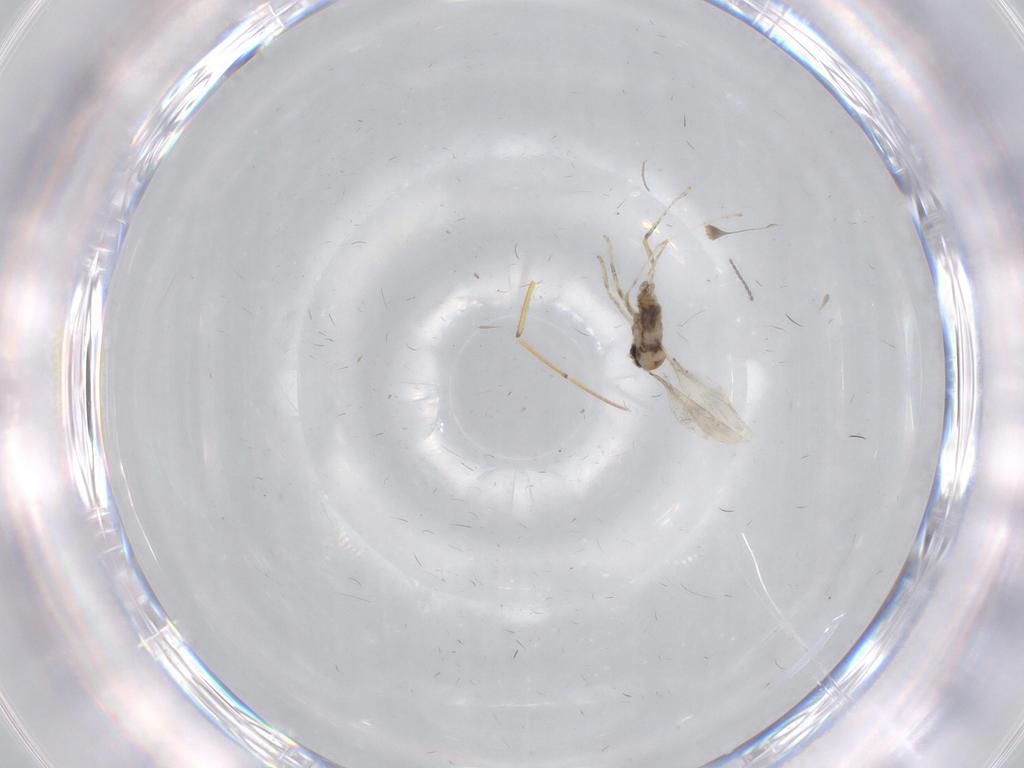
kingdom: Animalia
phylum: Arthropoda
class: Insecta
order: Diptera
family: Cecidomyiidae
